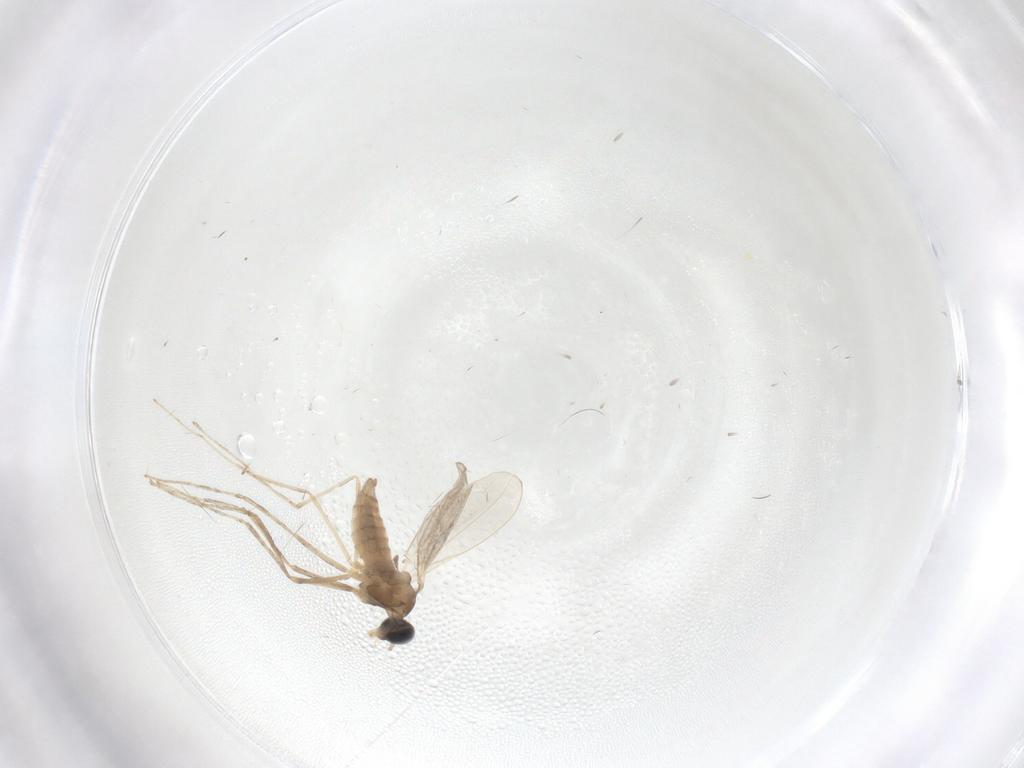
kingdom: Animalia
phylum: Arthropoda
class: Insecta
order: Diptera
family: Cecidomyiidae
